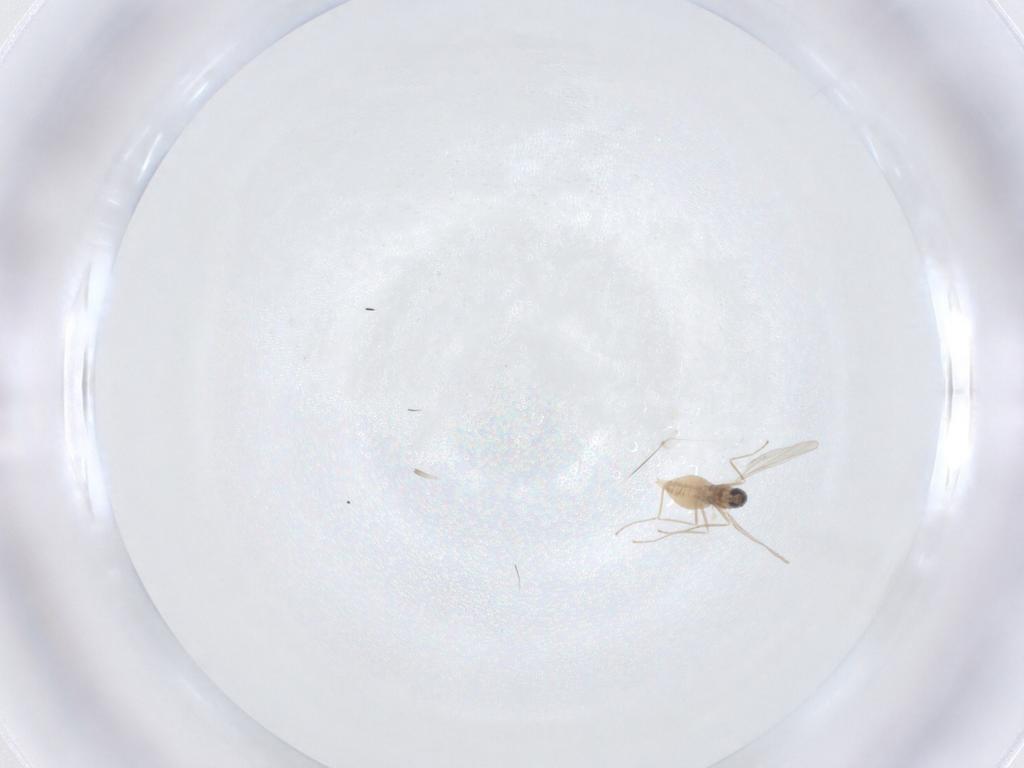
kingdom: Animalia
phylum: Arthropoda
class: Insecta
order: Diptera
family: Cecidomyiidae
